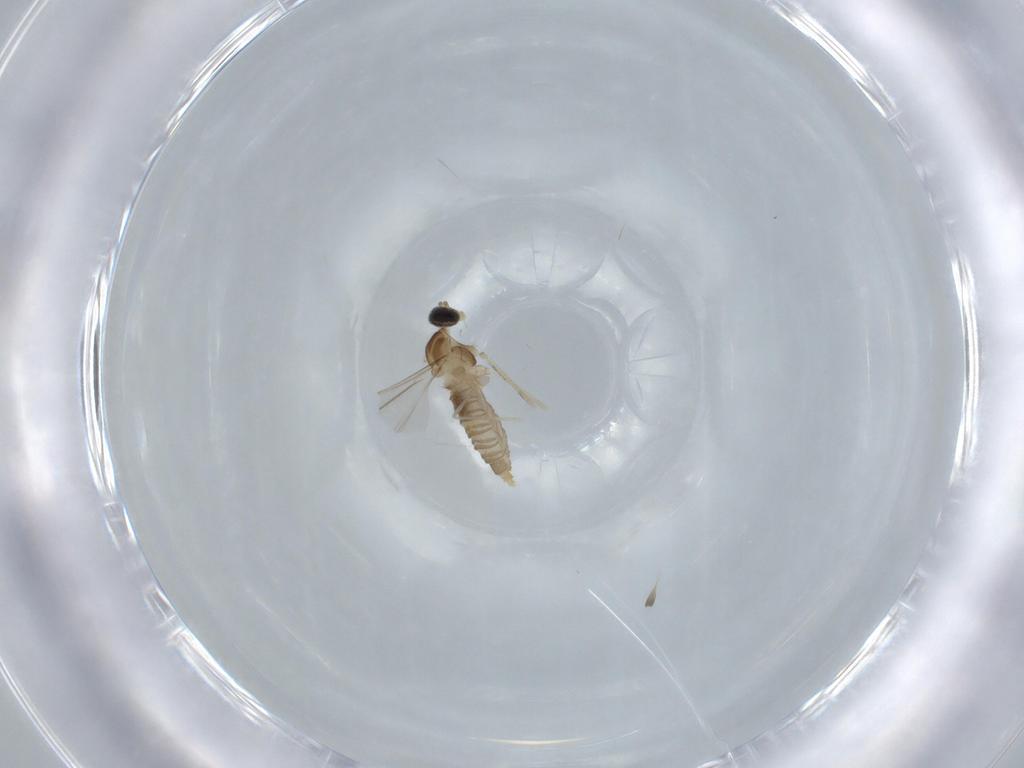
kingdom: Animalia
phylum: Arthropoda
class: Insecta
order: Diptera
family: Cecidomyiidae
